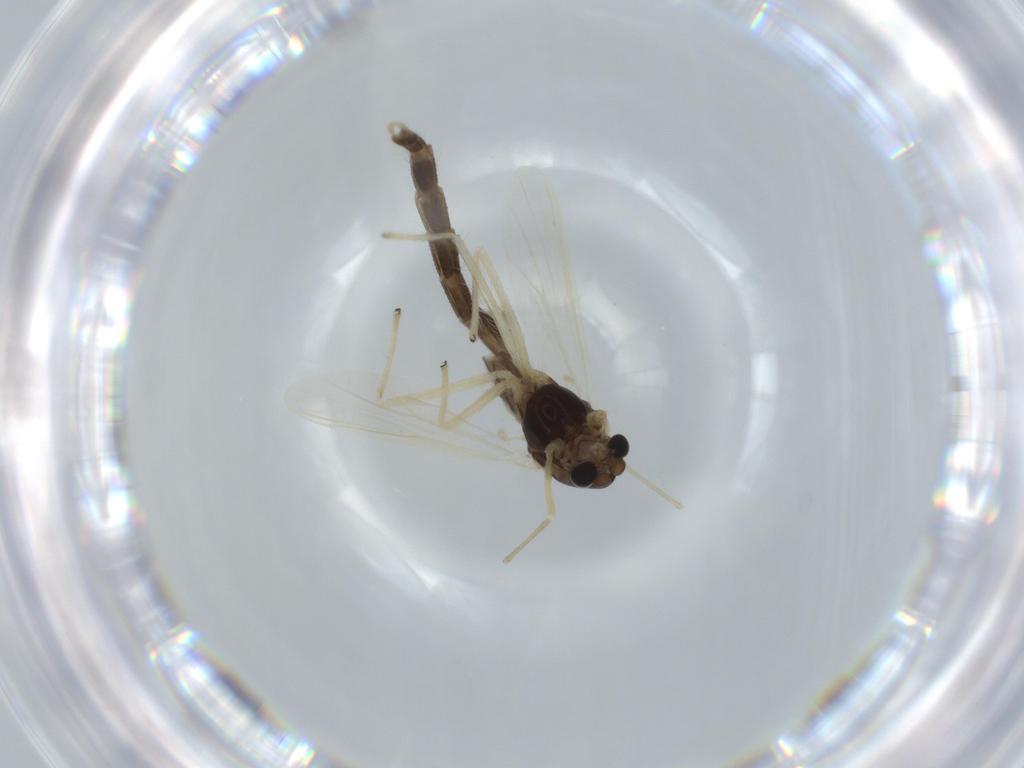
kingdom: Animalia
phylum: Arthropoda
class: Insecta
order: Diptera
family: Chironomidae
